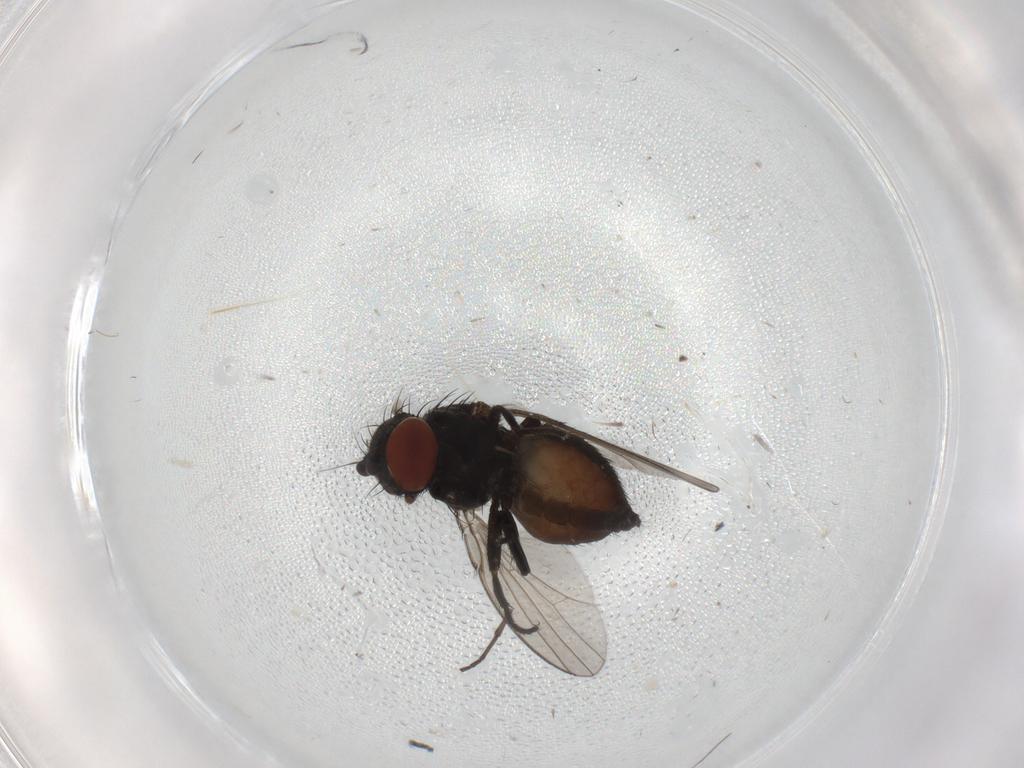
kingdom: Animalia
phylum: Arthropoda
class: Insecta
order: Diptera
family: Milichiidae
